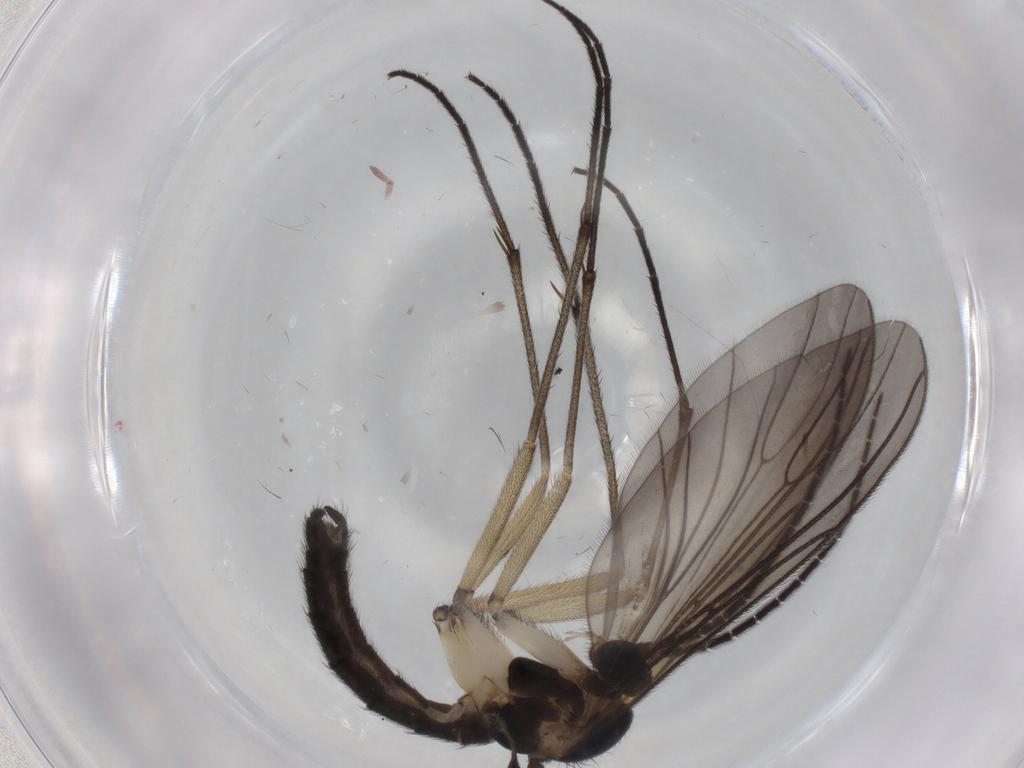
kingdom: Animalia
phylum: Arthropoda
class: Insecta
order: Diptera
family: Sciaridae
